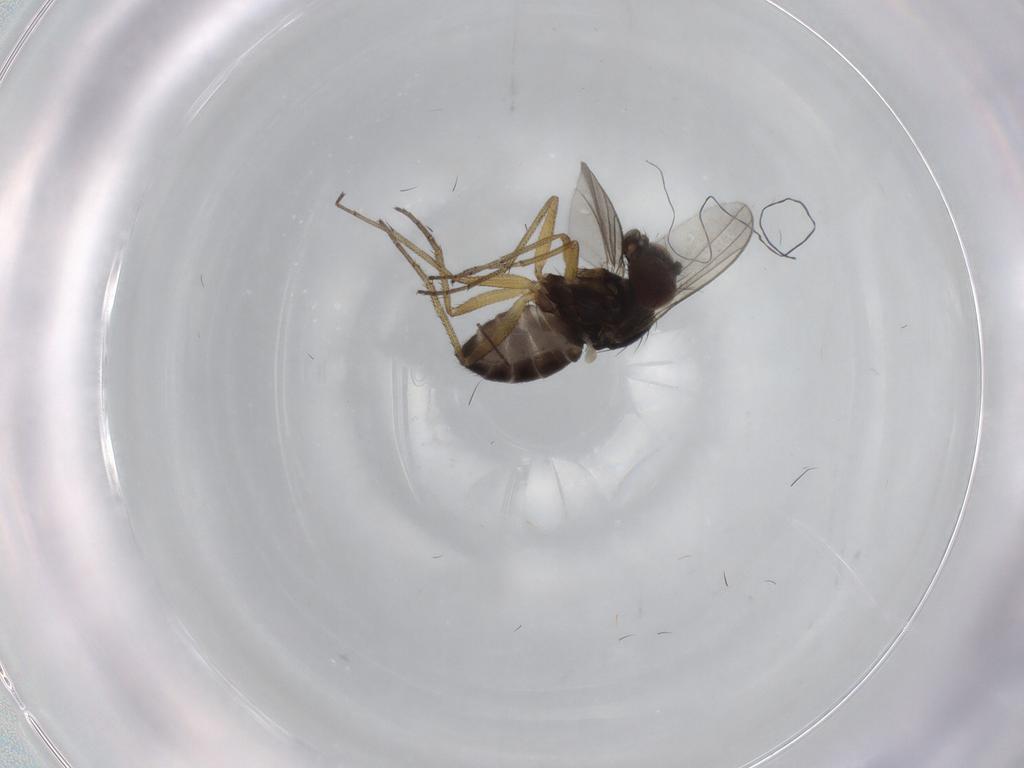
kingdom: Animalia
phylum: Arthropoda
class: Insecta
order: Diptera
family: Dolichopodidae
